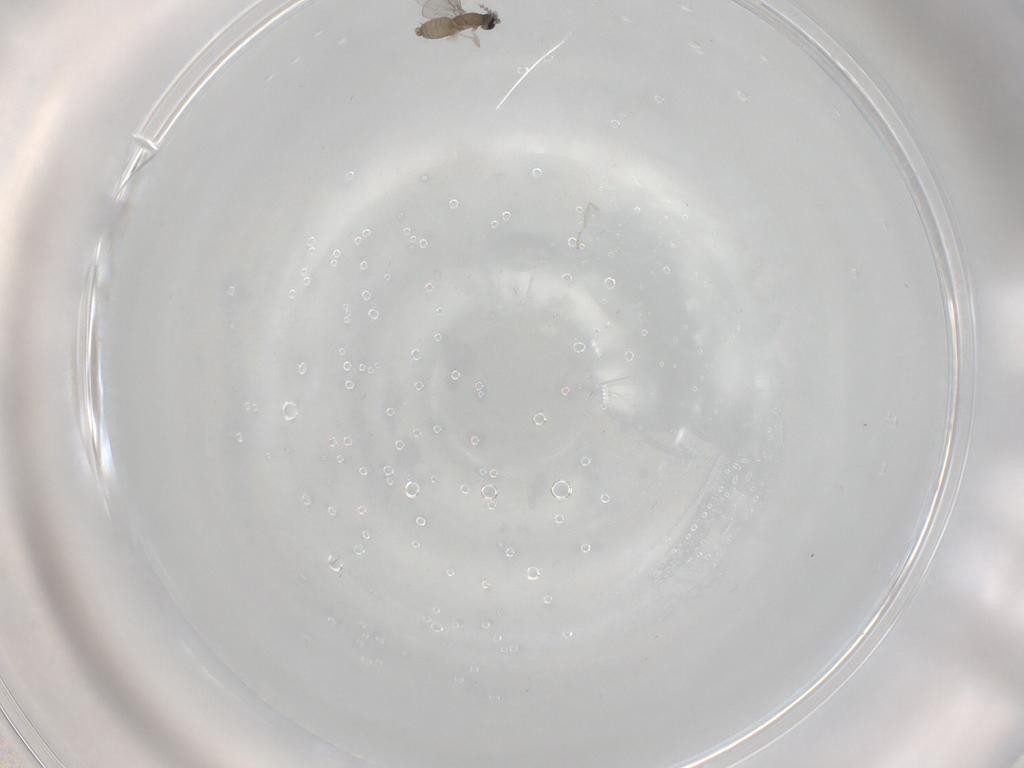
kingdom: Animalia
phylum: Arthropoda
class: Insecta
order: Diptera
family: Cecidomyiidae
